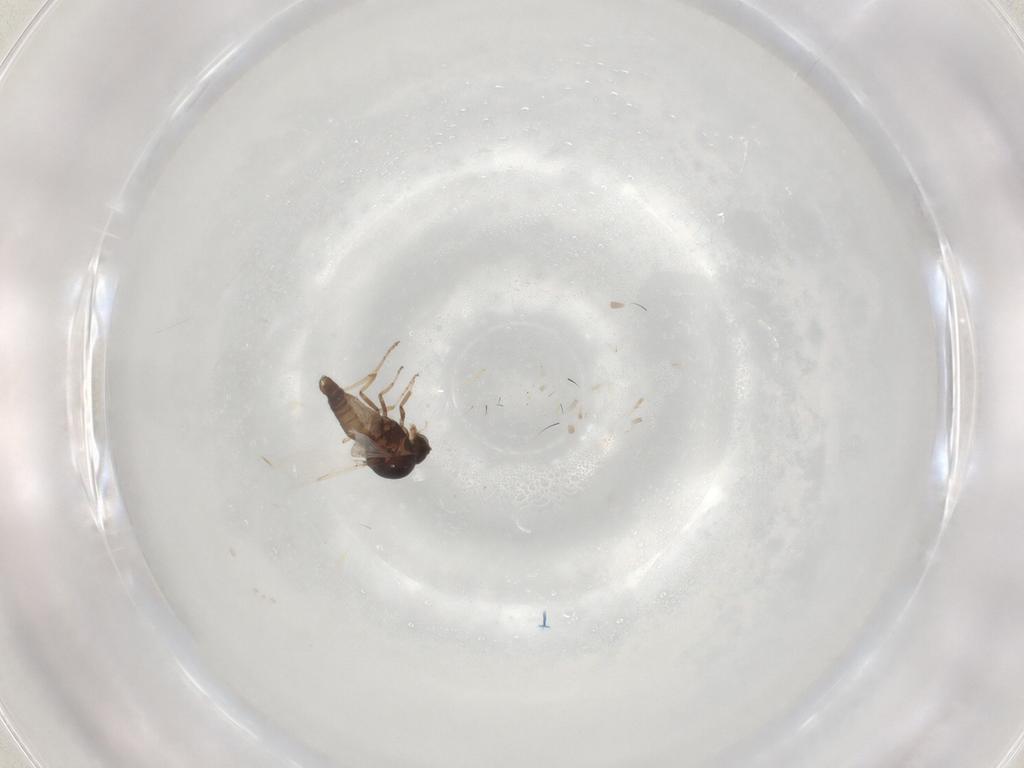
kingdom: Animalia
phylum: Arthropoda
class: Insecta
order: Diptera
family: Ceratopogonidae
